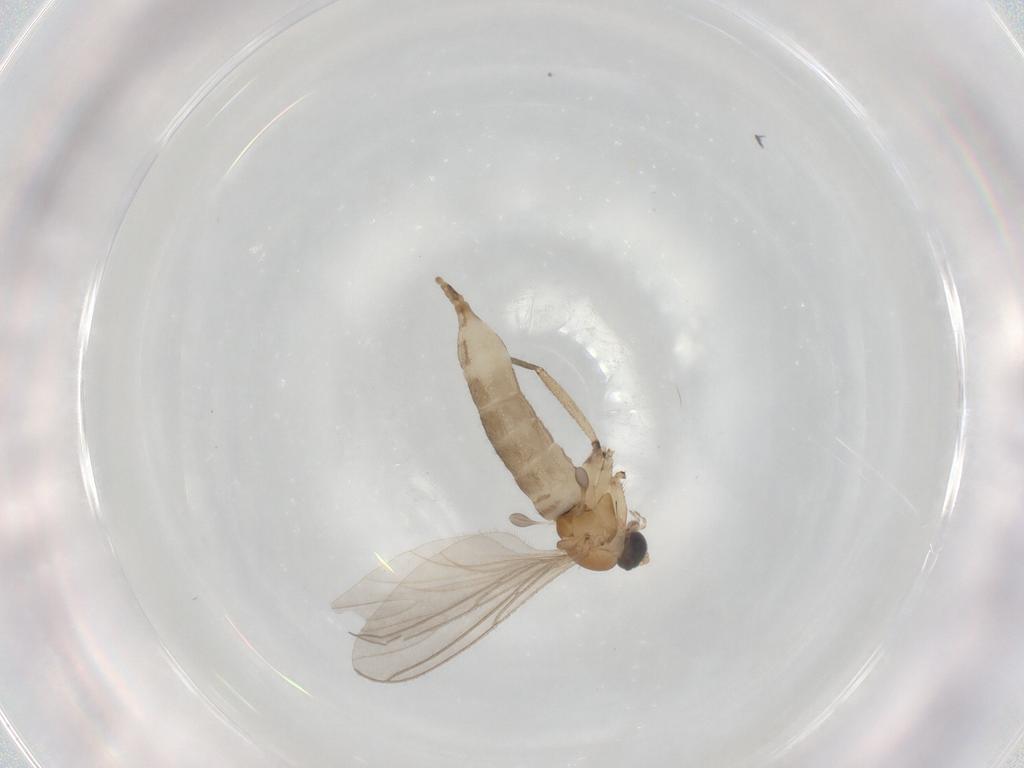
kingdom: Animalia
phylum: Arthropoda
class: Insecta
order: Diptera
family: Sciaridae
